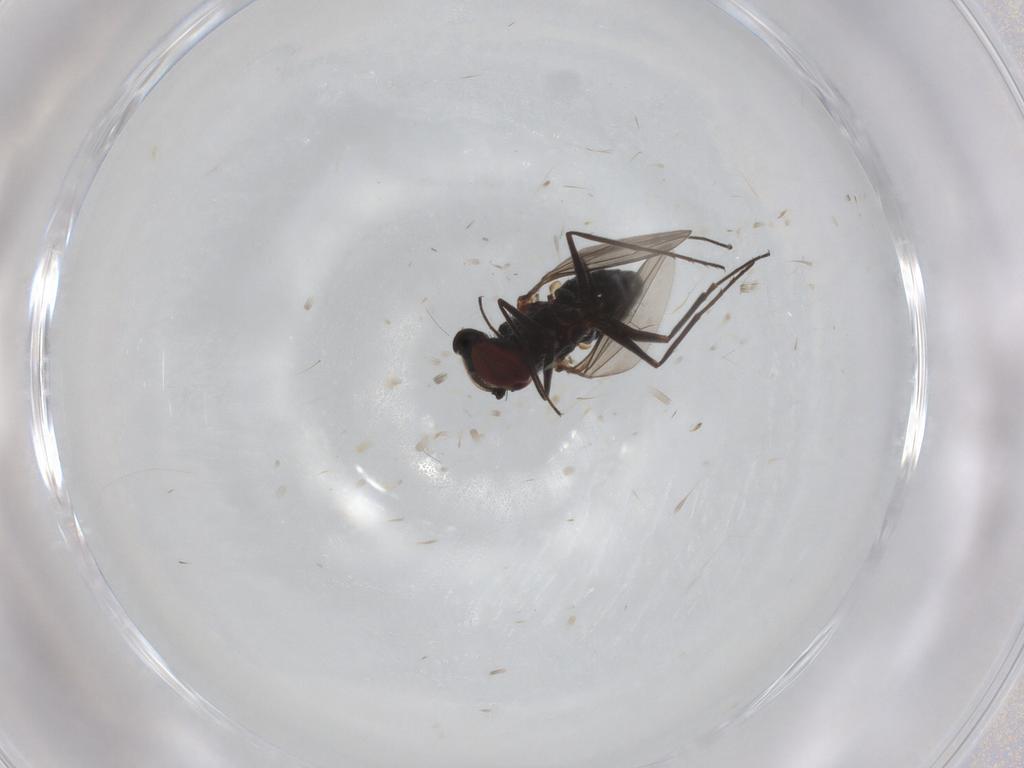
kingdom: Animalia
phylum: Arthropoda
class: Insecta
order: Diptera
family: Dolichopodidae
